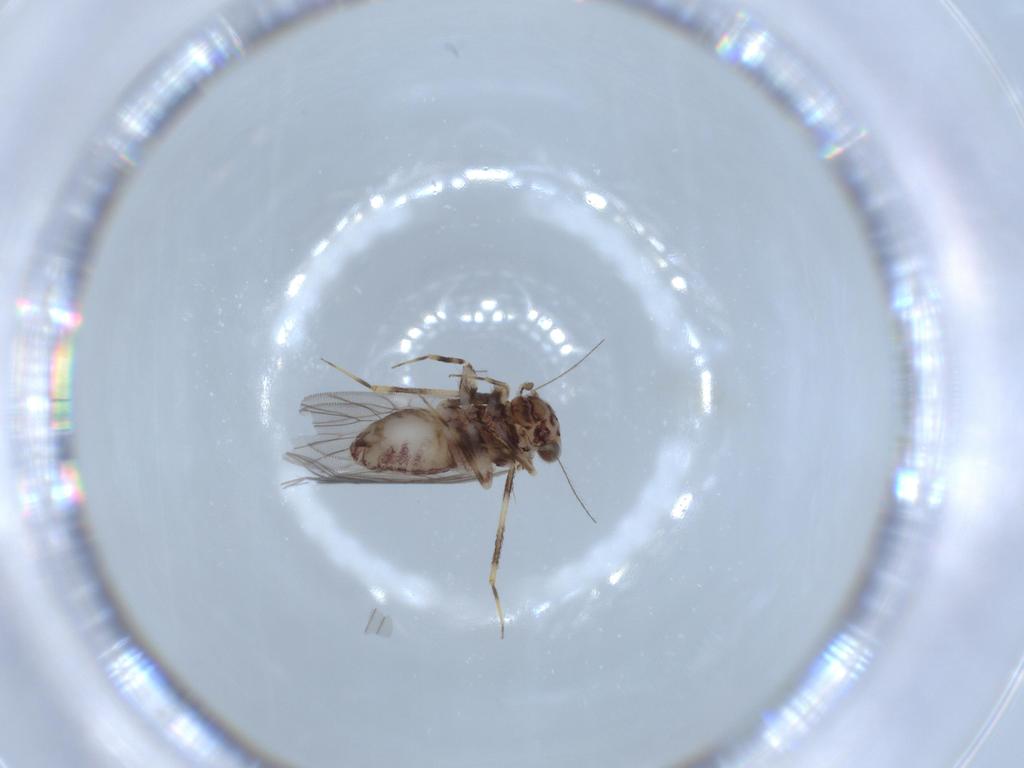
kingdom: Animalia
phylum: Arthropoda
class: Insecta
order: Psocodea
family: Lepidopsocidae
